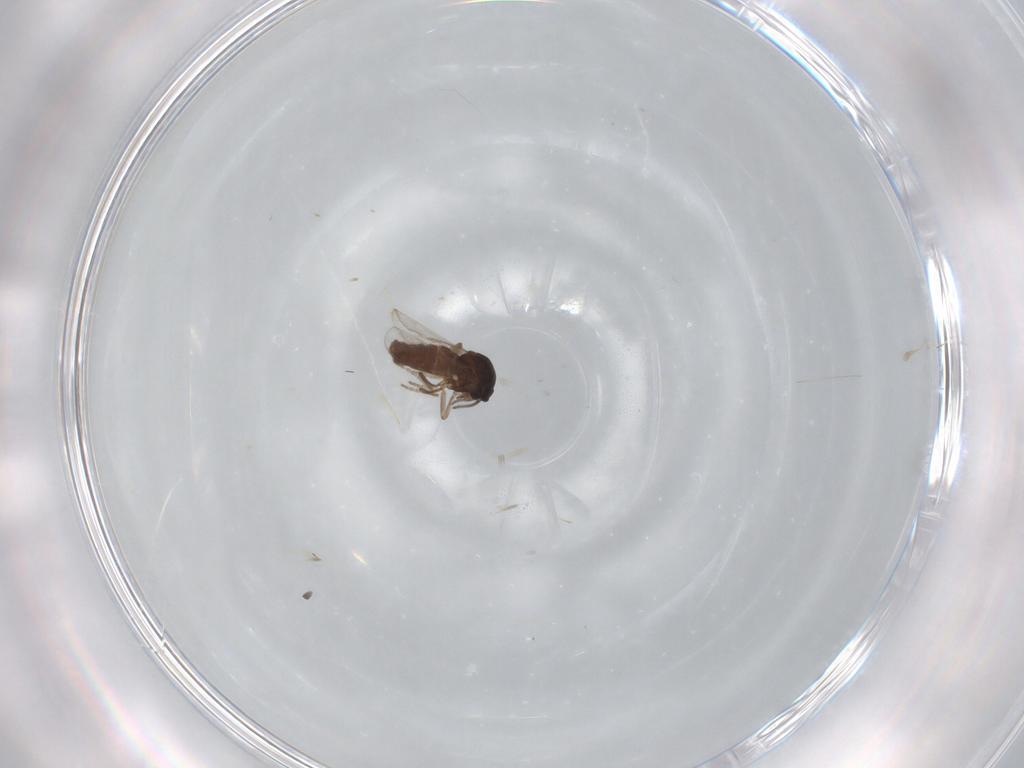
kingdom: Animalia
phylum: Arthropoda
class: Insecta
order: Diptera
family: Ceratopogonidae
